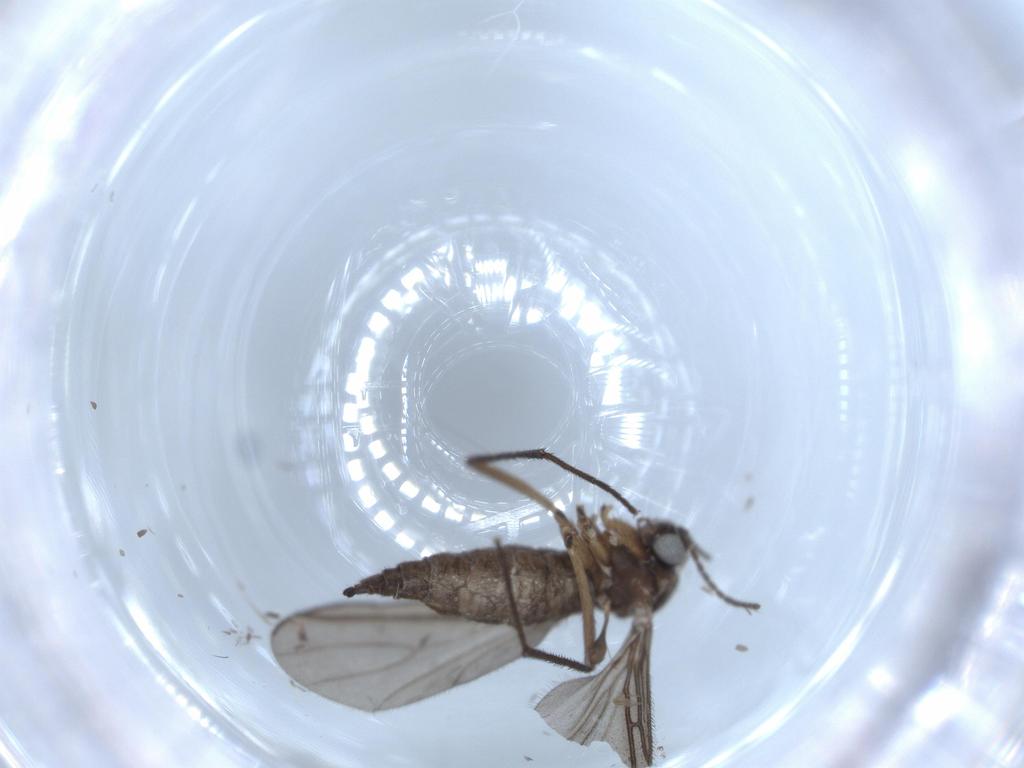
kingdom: Animalia
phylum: Arthropoda
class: Insecta
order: Diptera
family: Sciaridae
